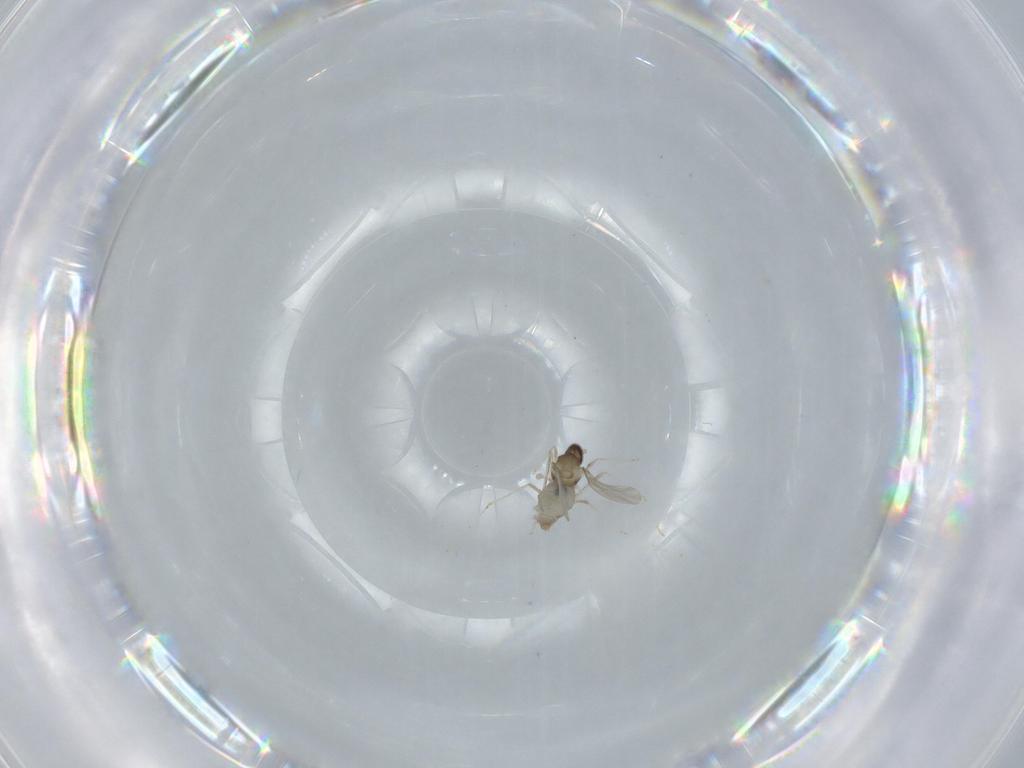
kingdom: Animalia
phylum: Arthropoda
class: Insecta
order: Diptera
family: Cecidomyiidae
